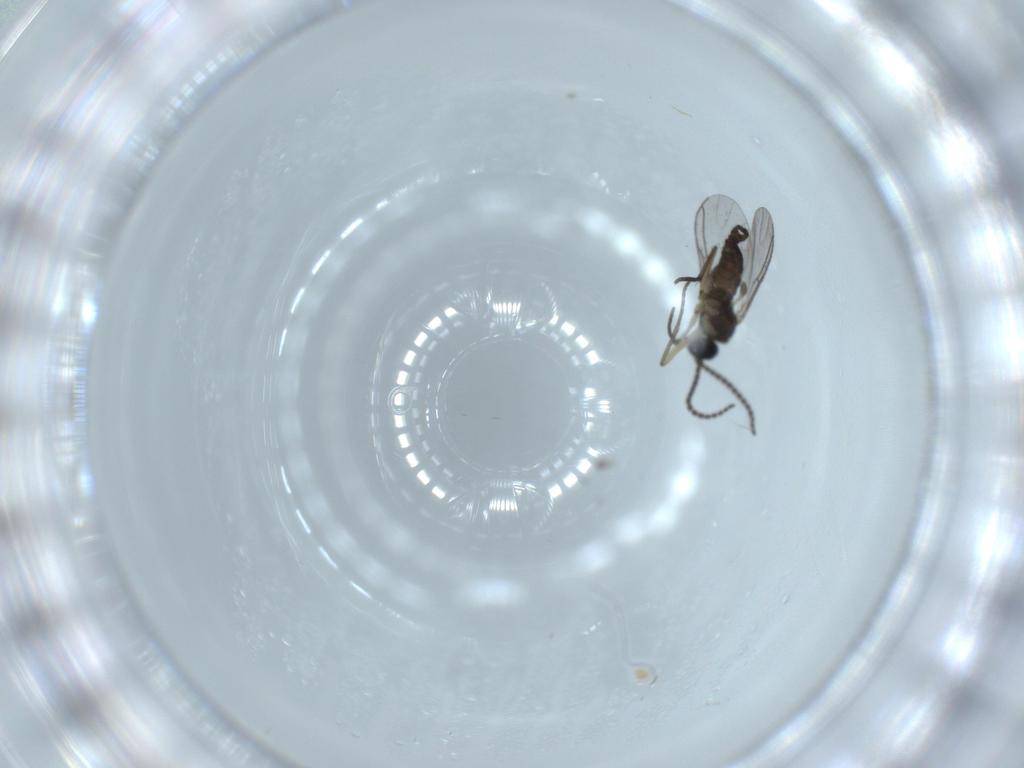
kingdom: Animalia
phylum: Arthropoda
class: Insecta
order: Diptera
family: Sciaridae
